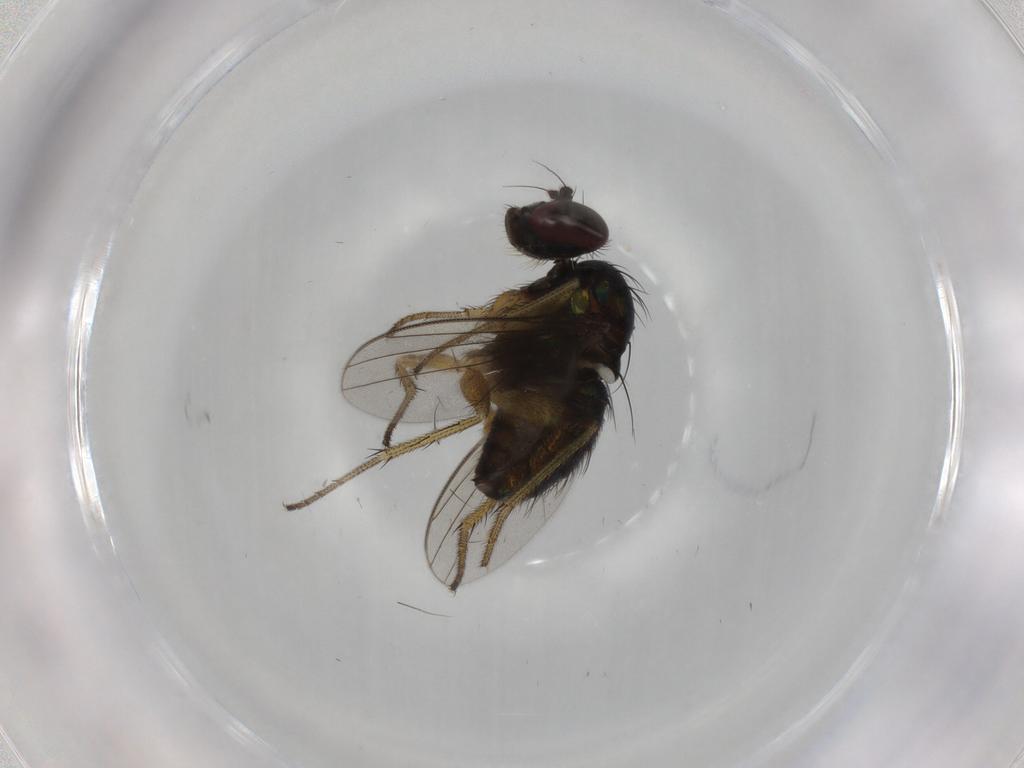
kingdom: Animalia
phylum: Arthropoda
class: Insecta
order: Diptera
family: Dolichopodidae
